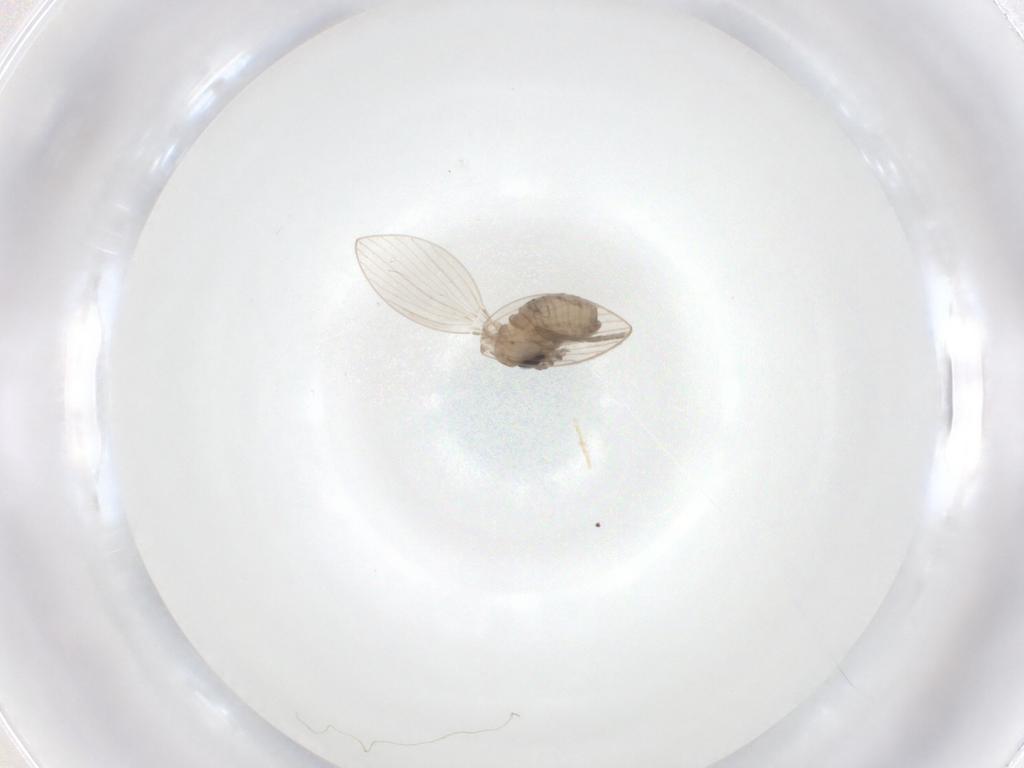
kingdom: Animalia
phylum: Arthropoda
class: Insecta
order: Diptera
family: Psychodidae
